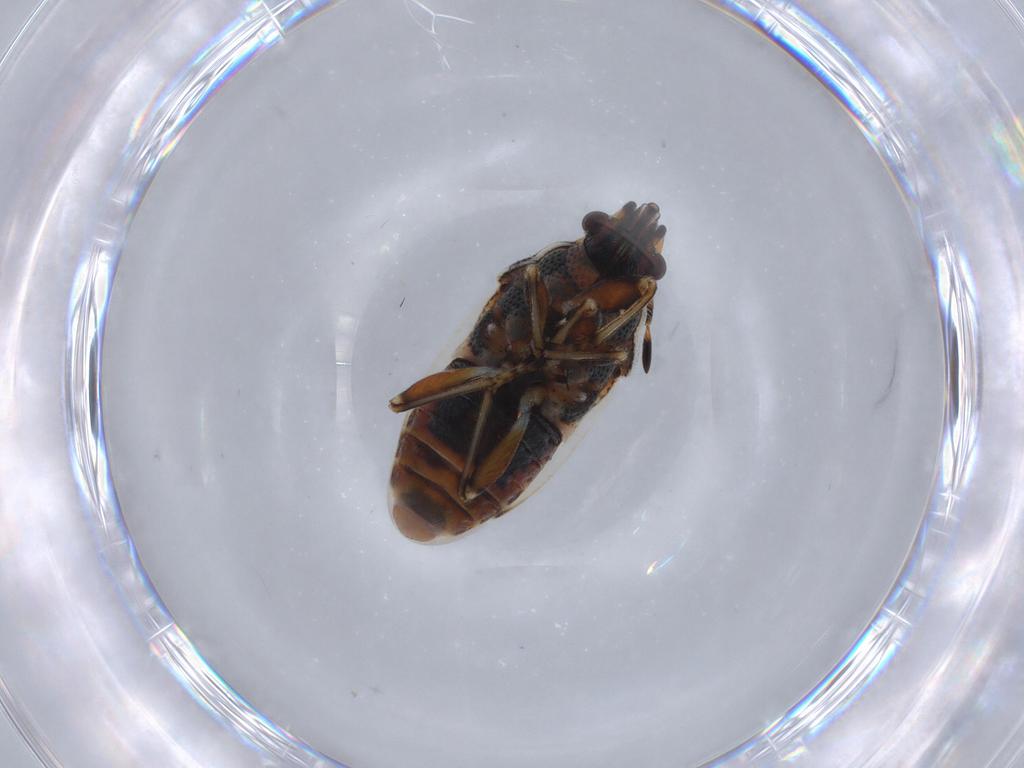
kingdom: Animalia
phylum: Arthropoda
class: Insecta
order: Hemiptera
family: Rhyparochromidae
